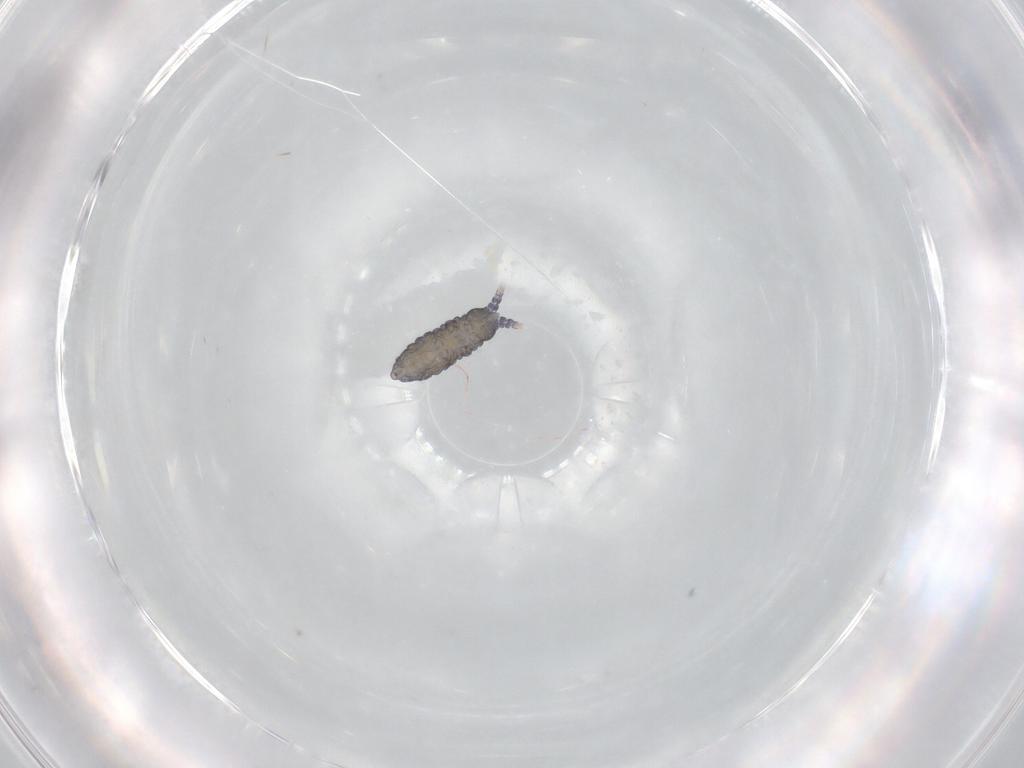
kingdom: Animalia
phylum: Arthropoda
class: Collembola
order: Poduromorpha
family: Neanuridae
